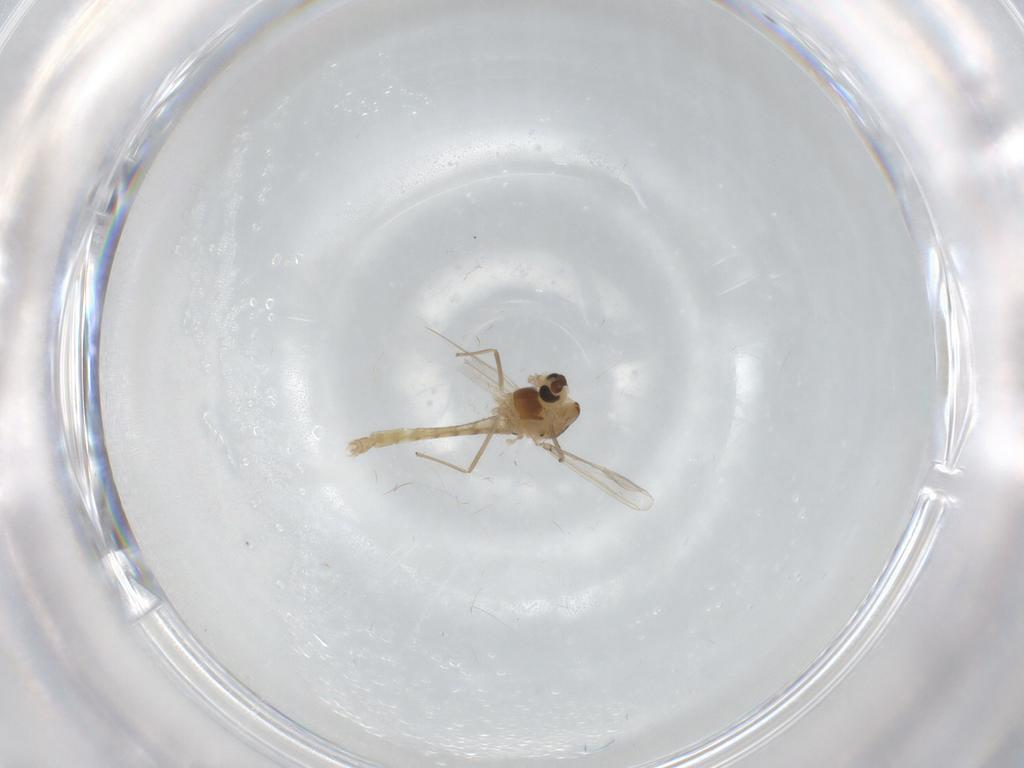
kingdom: Animalia
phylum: Arthropoda
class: Insecta
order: Diptera
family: Chironomidae
